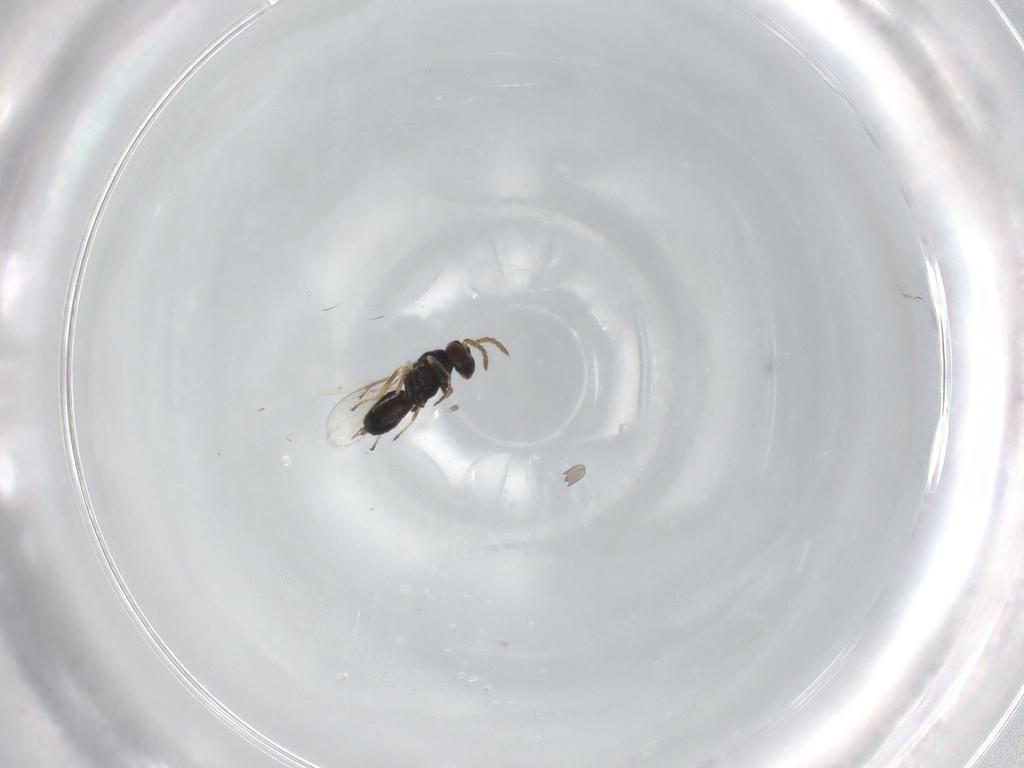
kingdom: Animalia
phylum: Arthropoda
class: Insecta
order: Hymenoptera
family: Eulophidae
